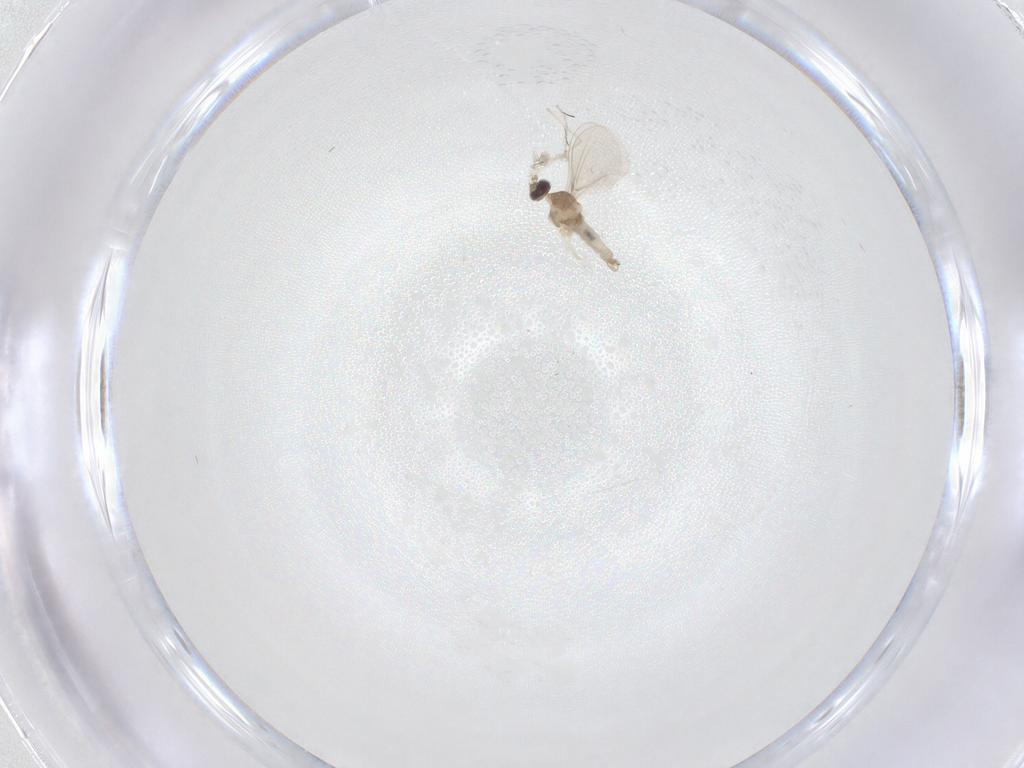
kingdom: Animalia
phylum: Arthropoda
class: Insecta
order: Diptera
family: Cecidomyiidae
